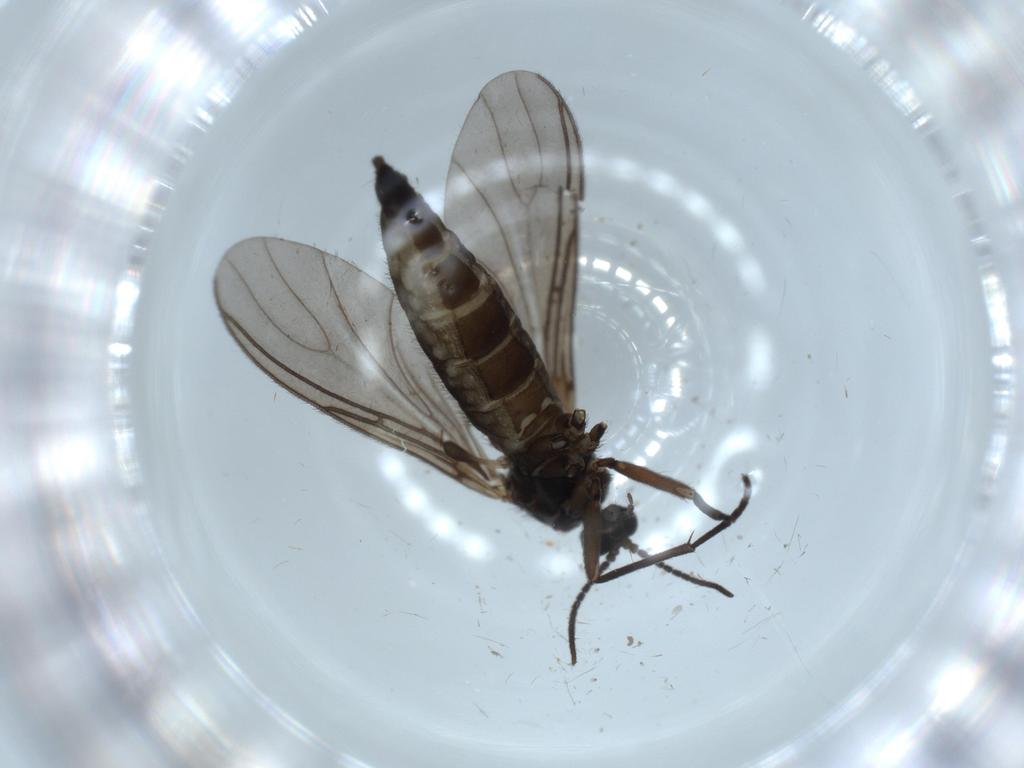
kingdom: Animalia
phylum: Arthropoda
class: Insecta
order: Diptera
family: Sciaridae
